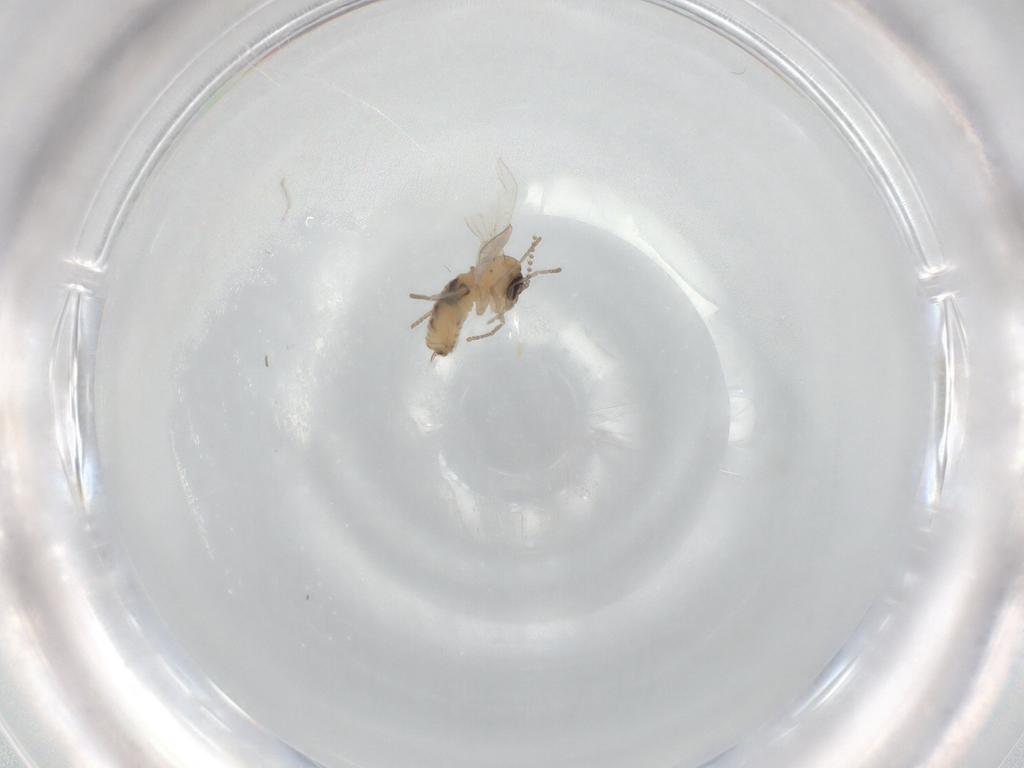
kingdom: Animalia
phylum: Arthropoda
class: Insecta
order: Diptera
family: Psychodidae
